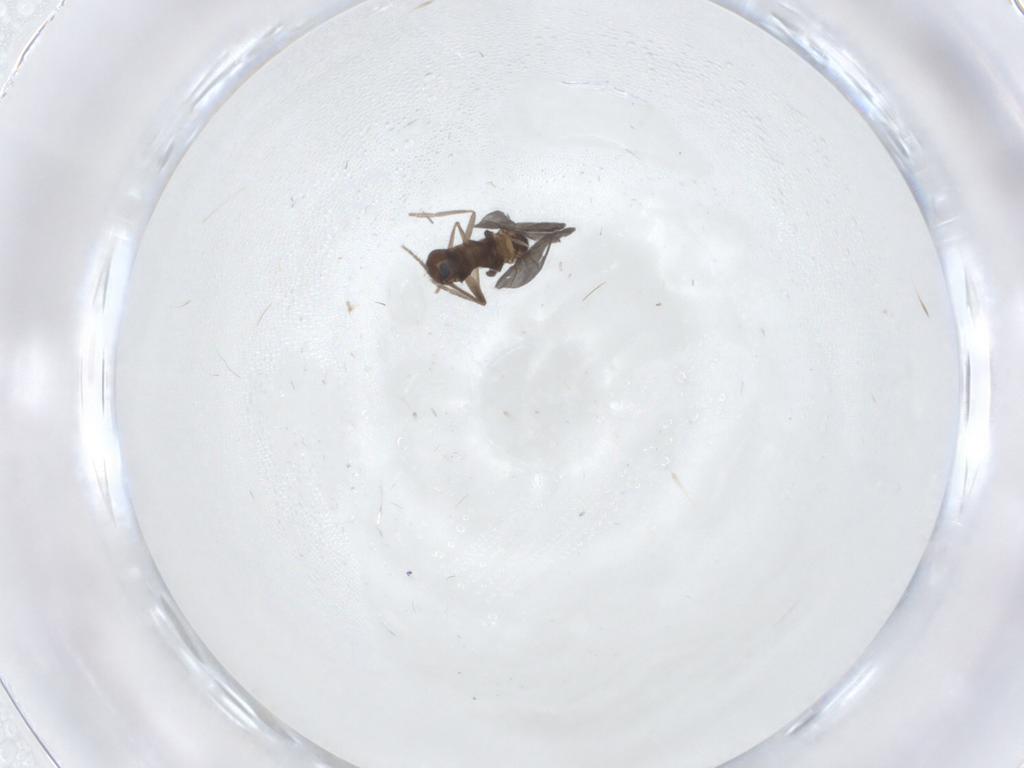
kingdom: Animalia
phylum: Arthropoda
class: Insecta
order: Diptera
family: Phoridae
